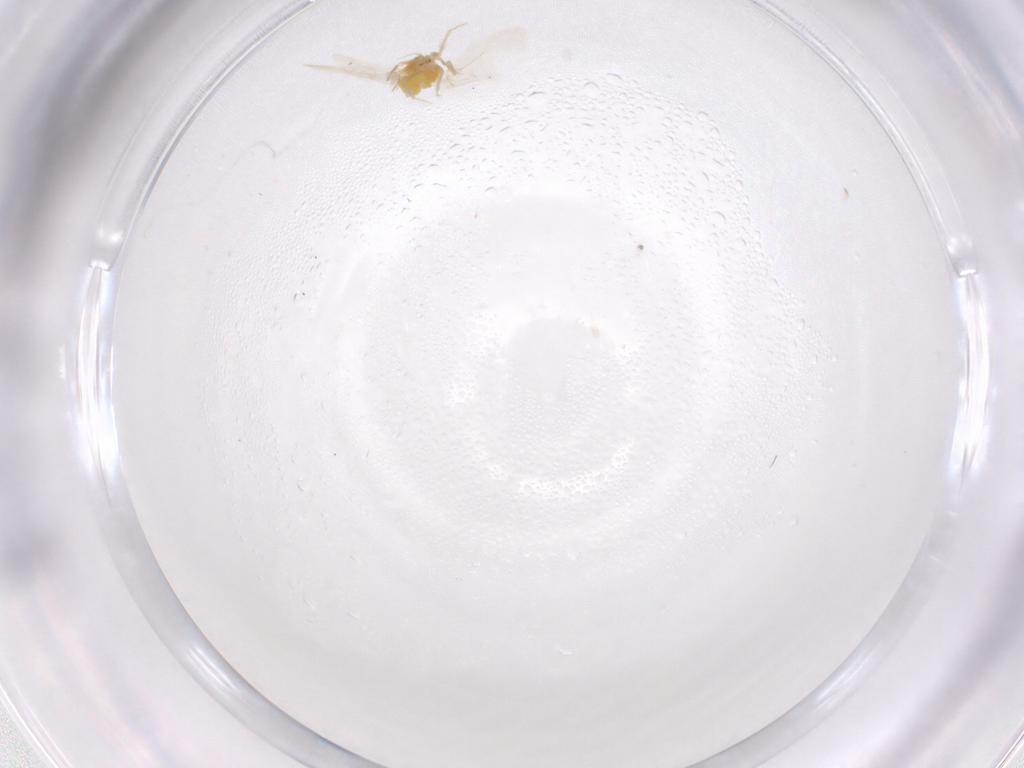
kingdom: Animalia
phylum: Arthropoda
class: Insecta
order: Hemiptera
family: Aleyrodidae
